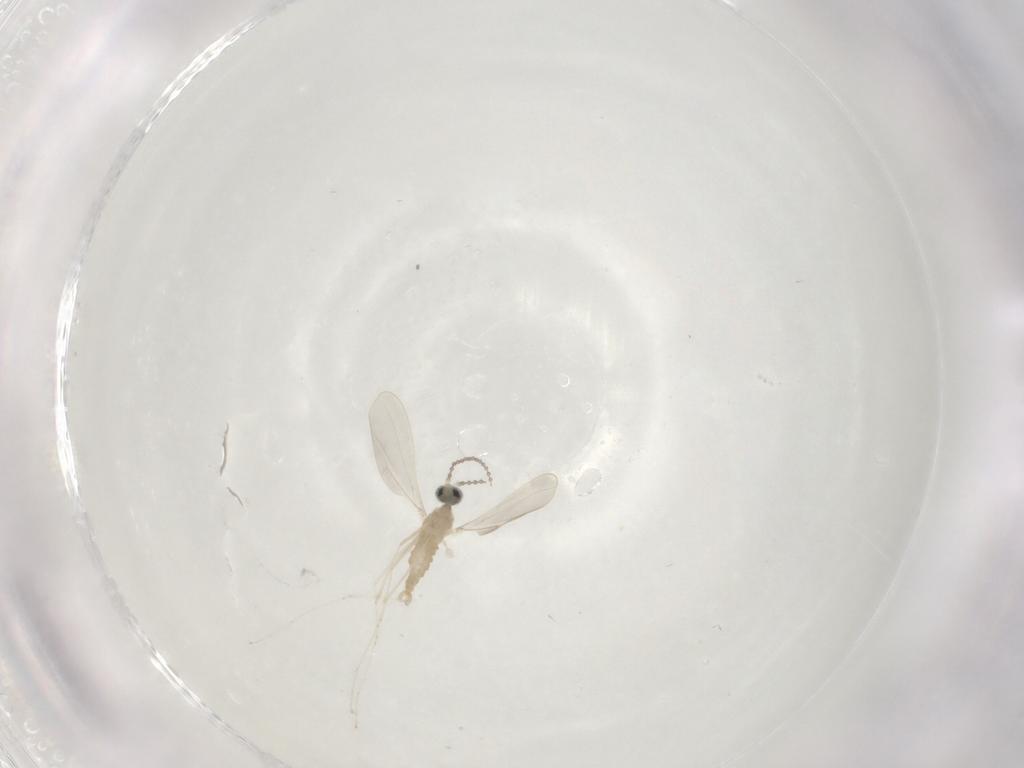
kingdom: Animalia
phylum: Arthropoda
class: Insecta
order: Diptera
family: Cecidomyiidae
